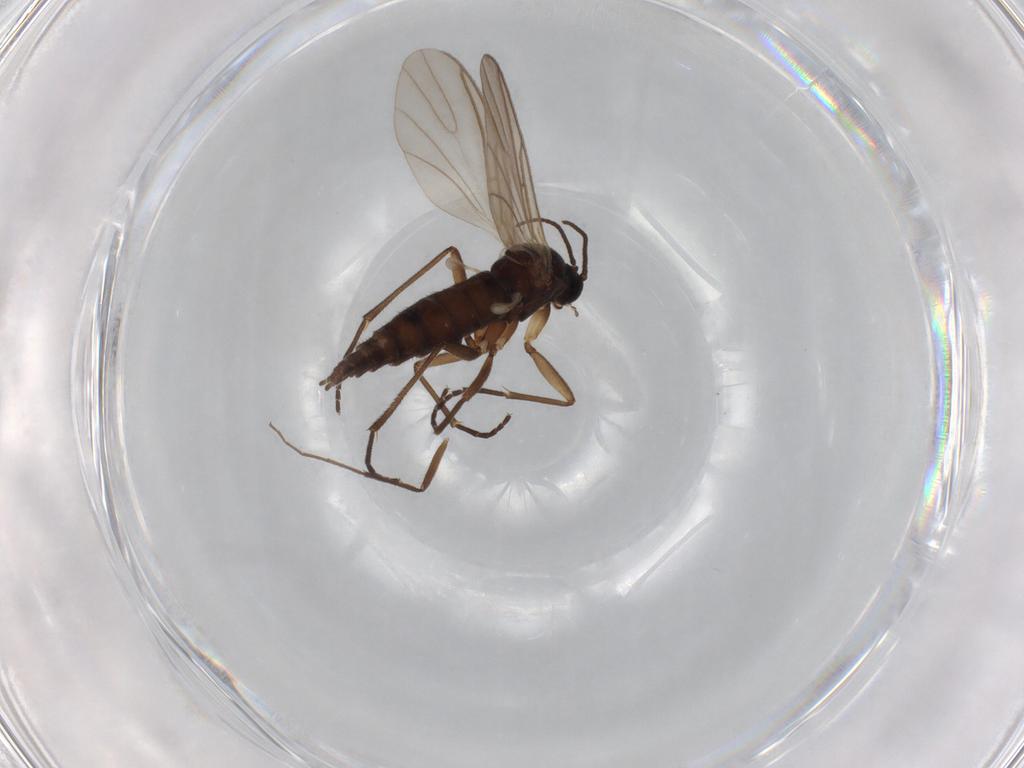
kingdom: Animalia
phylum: Arthropoda
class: Insecta
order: Diptera
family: Sciaridae
